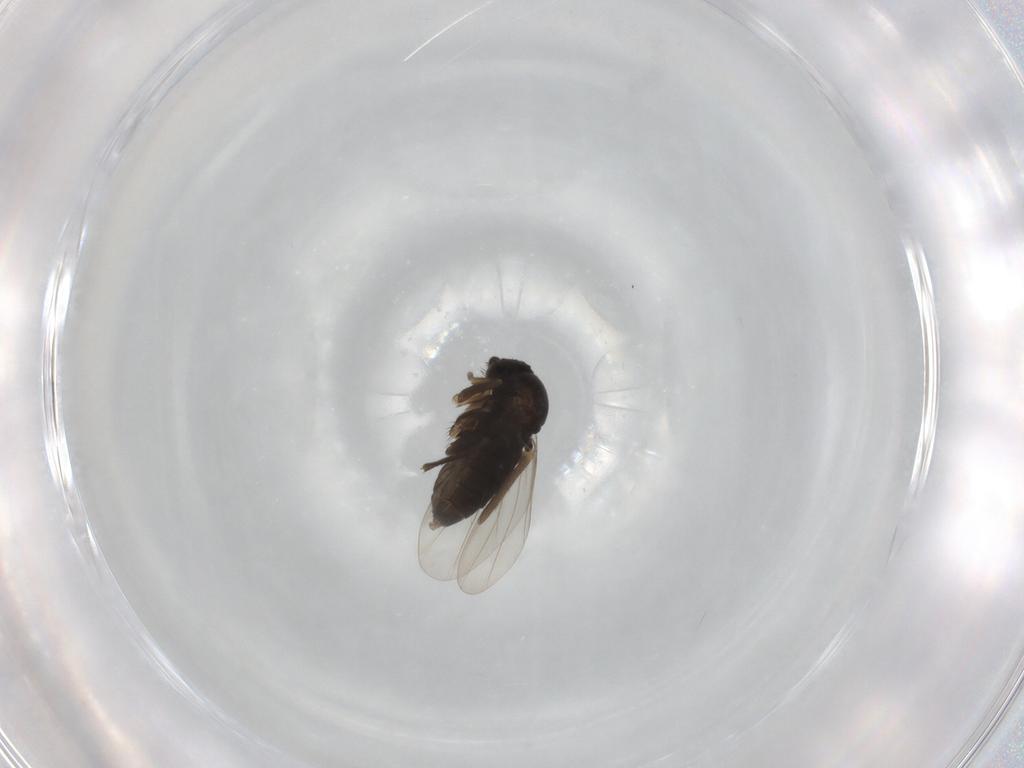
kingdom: Animalia
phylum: Arthropoda
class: Insecta
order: Diptera
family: Phoridae
